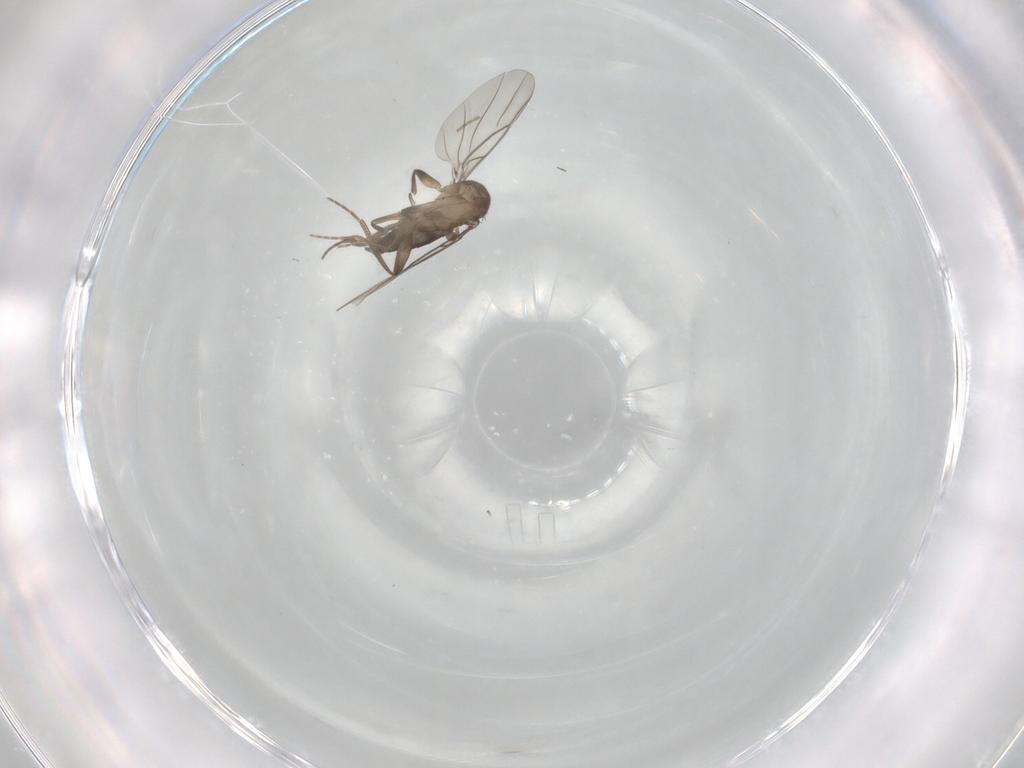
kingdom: Animalia
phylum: Arthropoda
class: Insecta
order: Diptera
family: Phoridae
